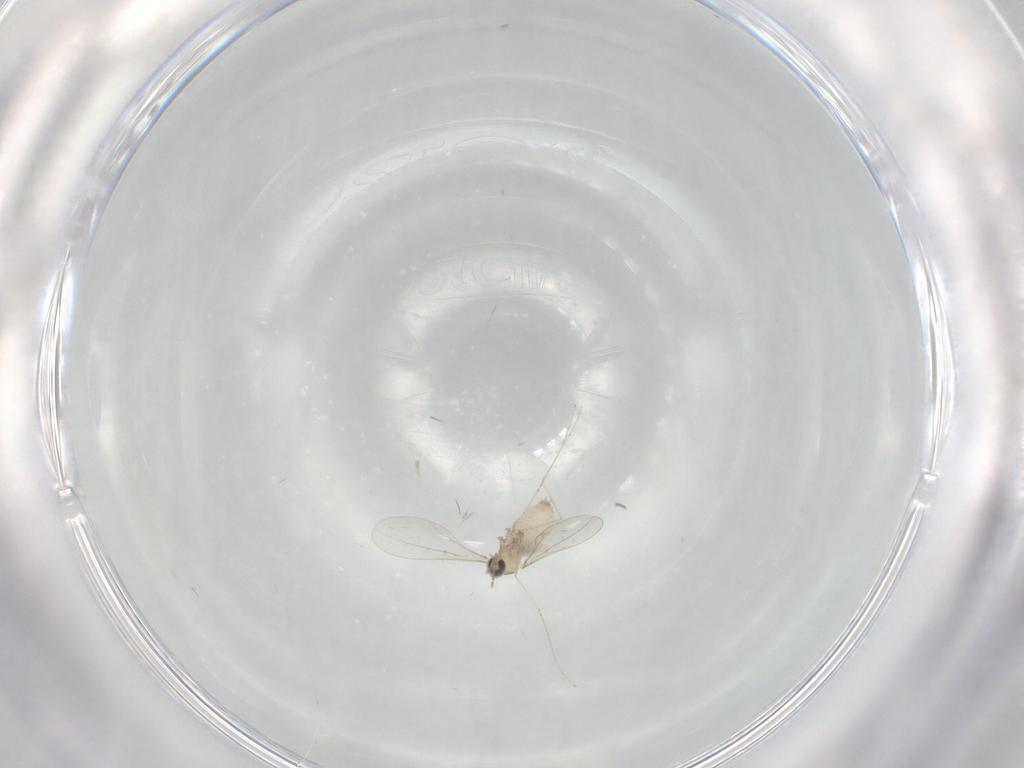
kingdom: Animalia
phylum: Arthropoda
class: Insecta
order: Diptera
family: Cecidomyiidae
